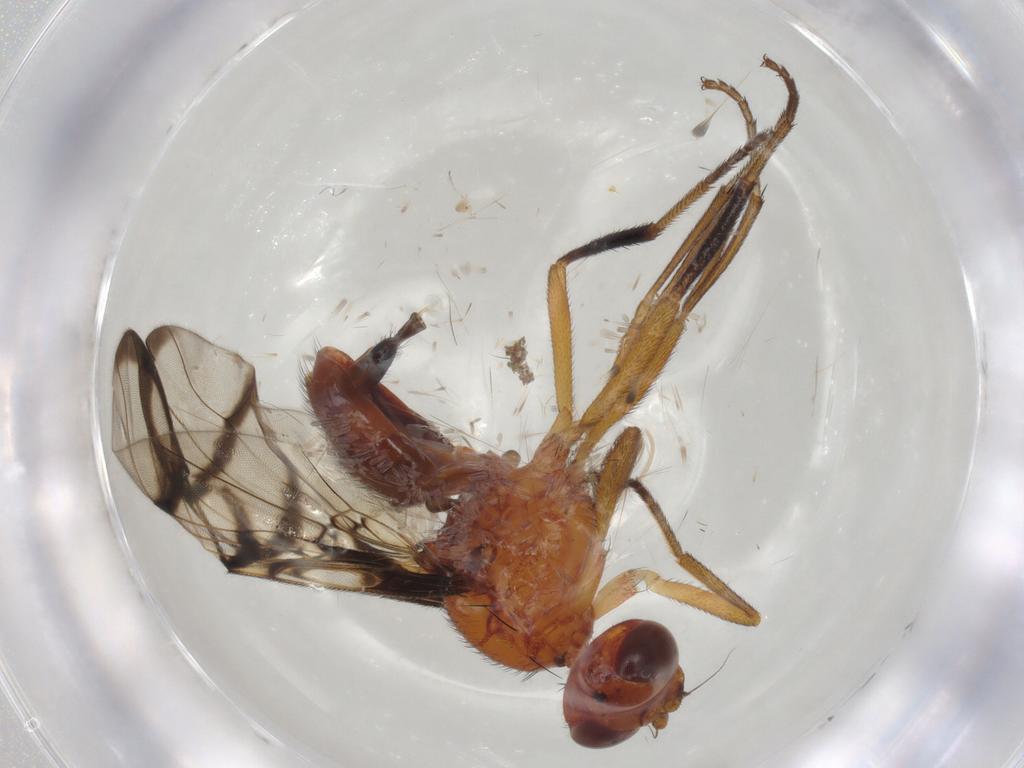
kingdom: Animalia
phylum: Arthropoda
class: Insecta
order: Diptera
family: Platystomatidae
